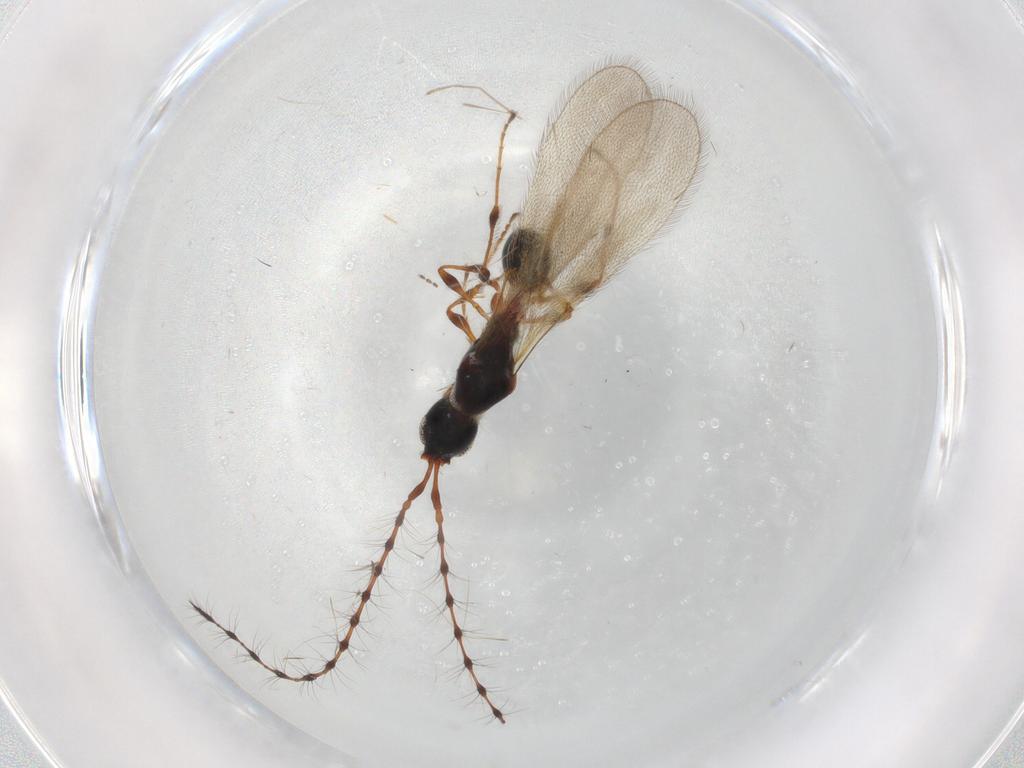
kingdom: Animalia
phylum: Arthropoda
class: Insecta
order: Hymenoptera
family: Diapriidae
